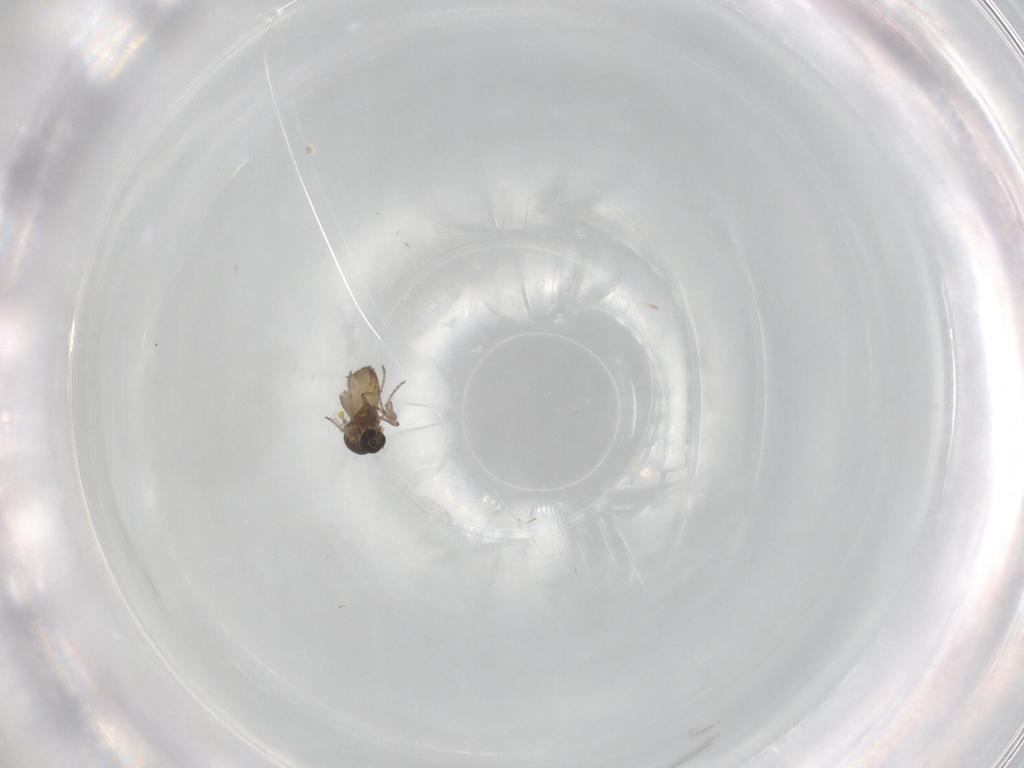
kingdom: Animalia
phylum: Arthropoda
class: Insecta
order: Diptera
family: Ceratopogonidae
